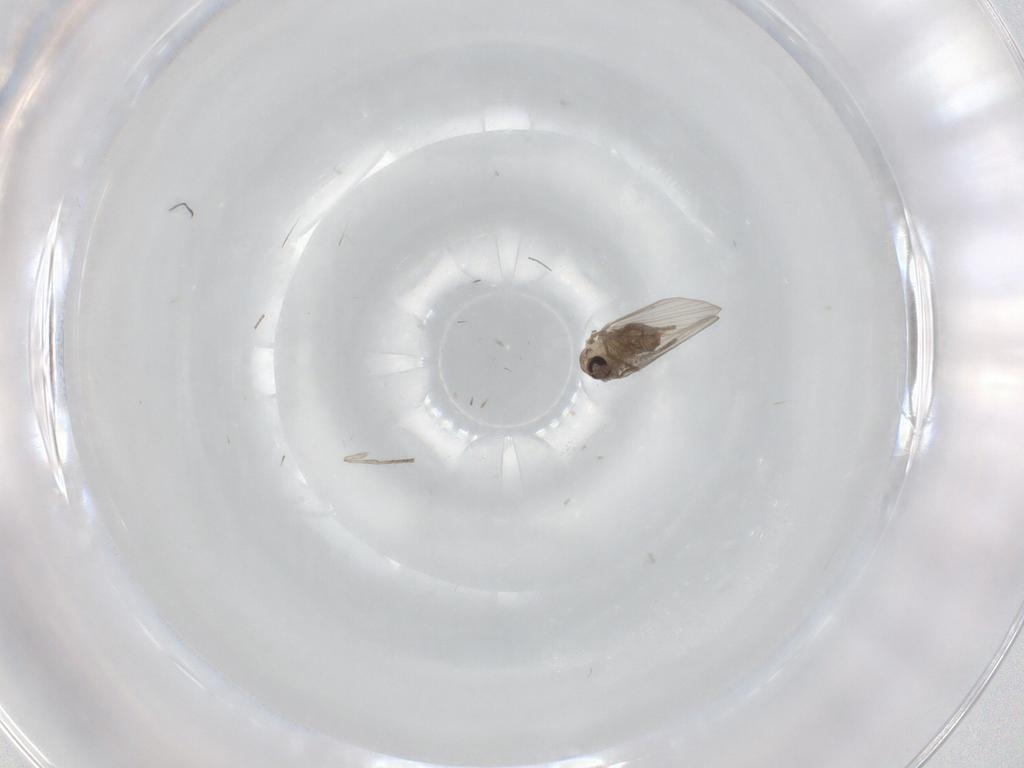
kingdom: Animalia
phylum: Arthropoda
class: Insecta
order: Diptera
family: Psychodidae
